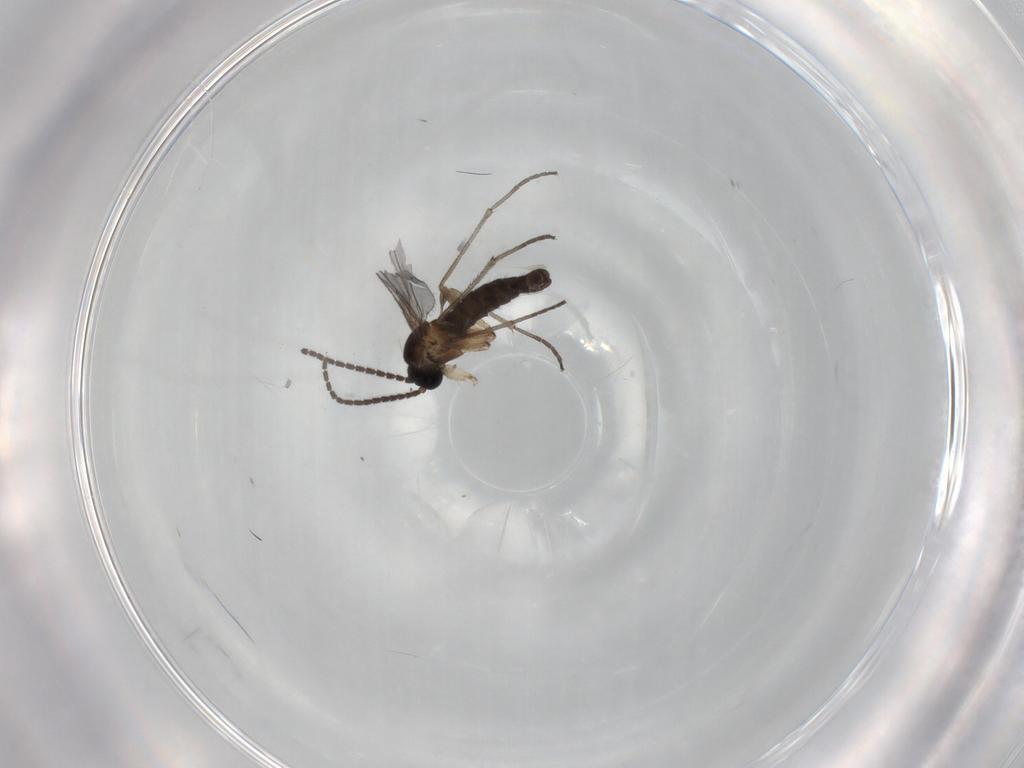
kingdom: Animalia
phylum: Arthropoda
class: Insecta
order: Diptera
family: Sciaridae
